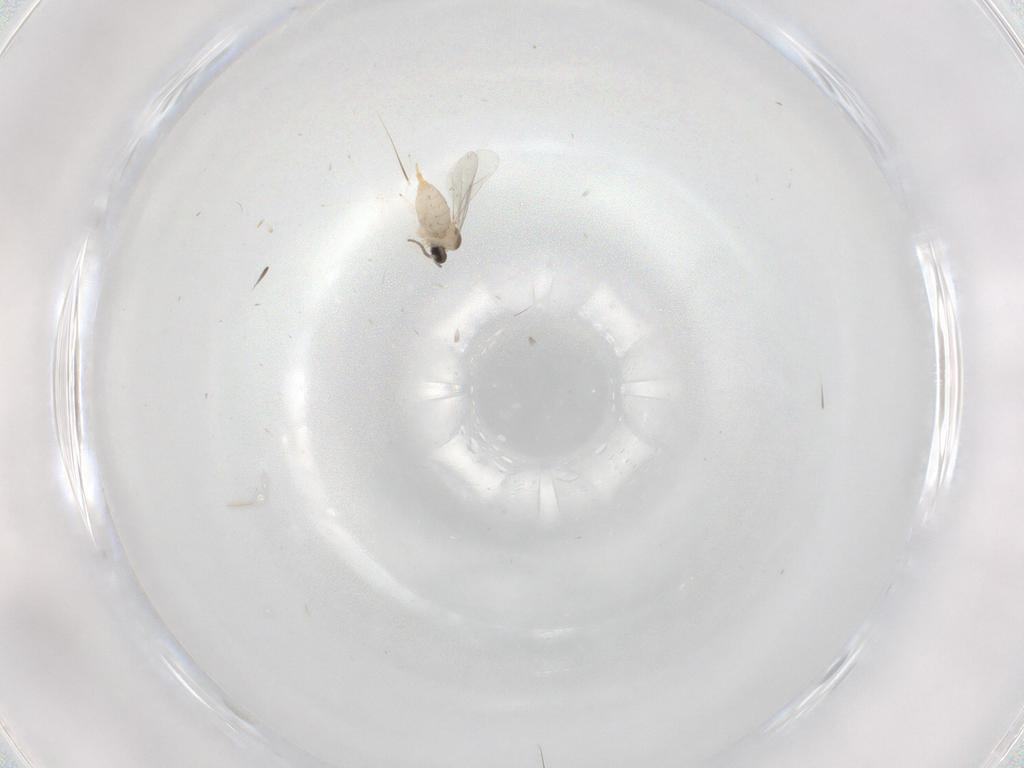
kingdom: Animalia
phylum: Arthropoda
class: Insecta
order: Diptera
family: Cecidomyiidae
